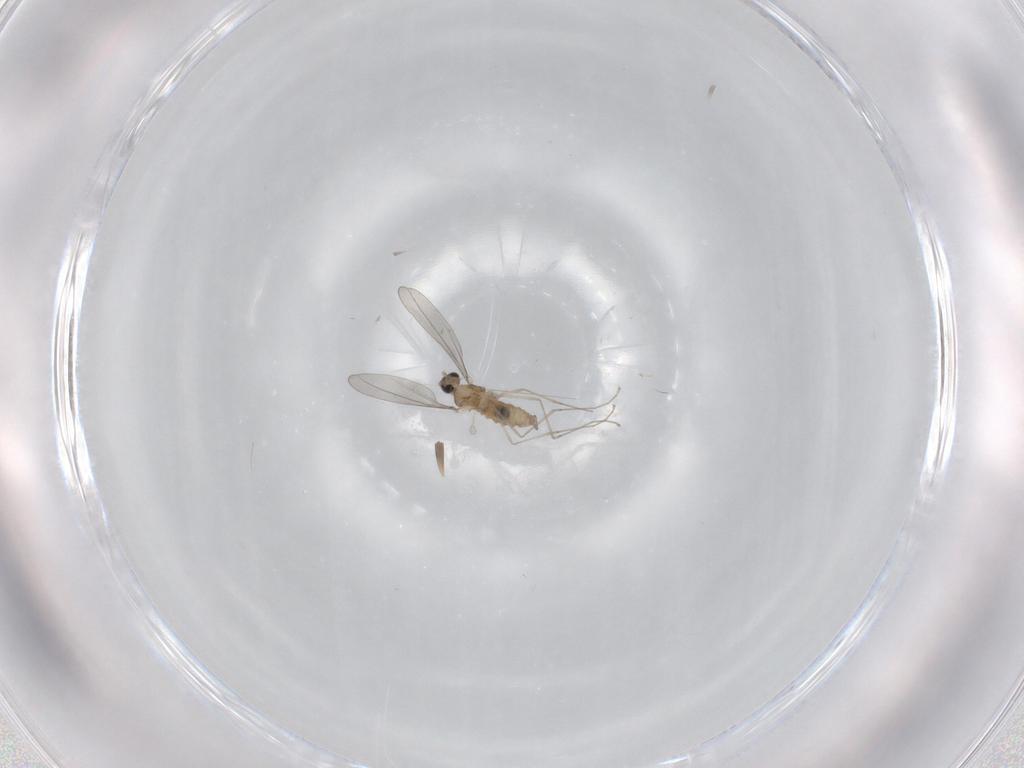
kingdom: Animalia
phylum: Arthropoda
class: Insecta
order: Diptera
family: Cecidomyiidae
